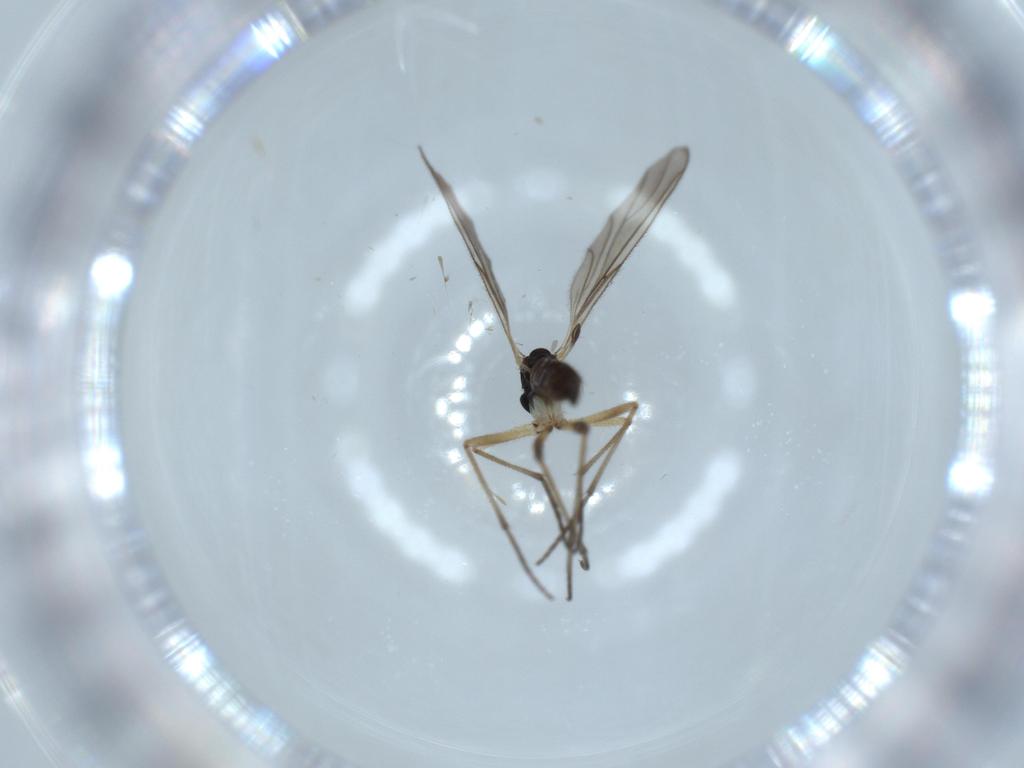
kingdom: Animalia
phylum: Arthropoda
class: Insecta
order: Diptera
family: Sciaridae
